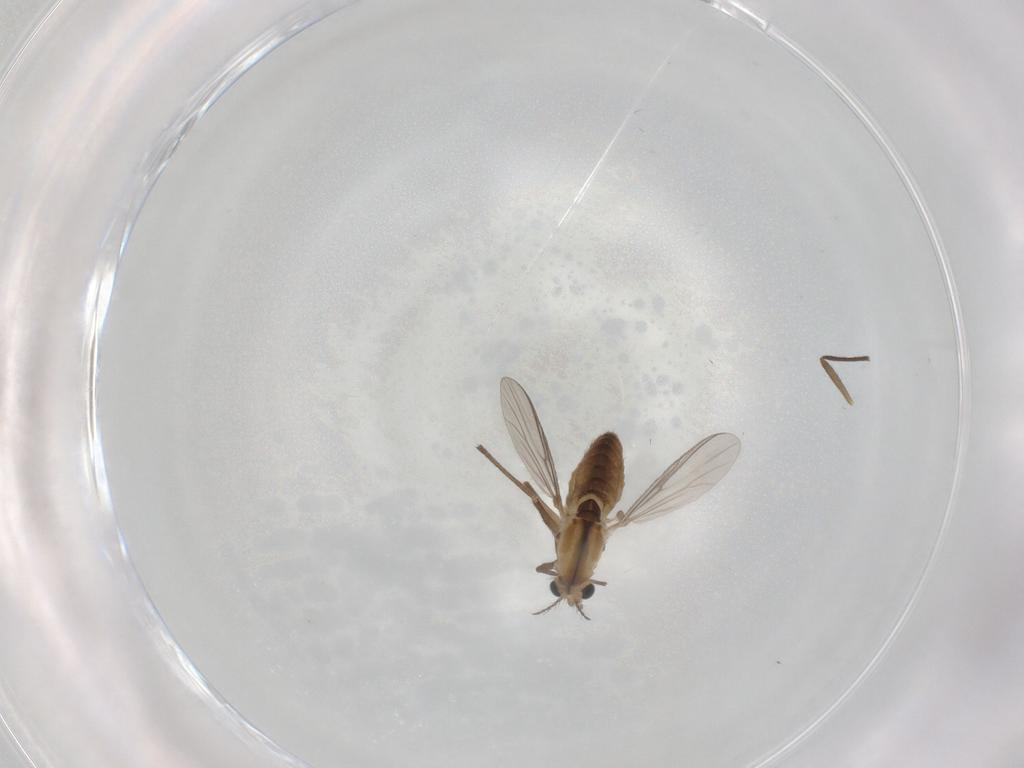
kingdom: Animalia
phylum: Arthropoda
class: Insecta
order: Diptera
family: Chironomidae
